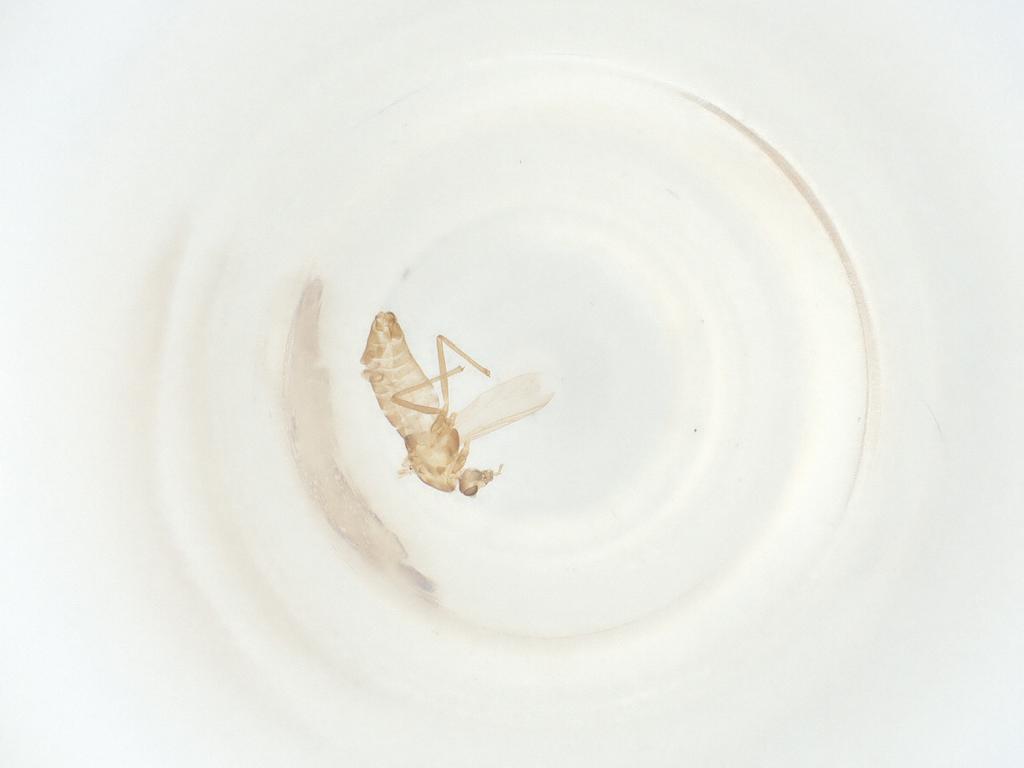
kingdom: Animalia
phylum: Arthropoda
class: Insecta
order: Diptera
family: Chironomidae
